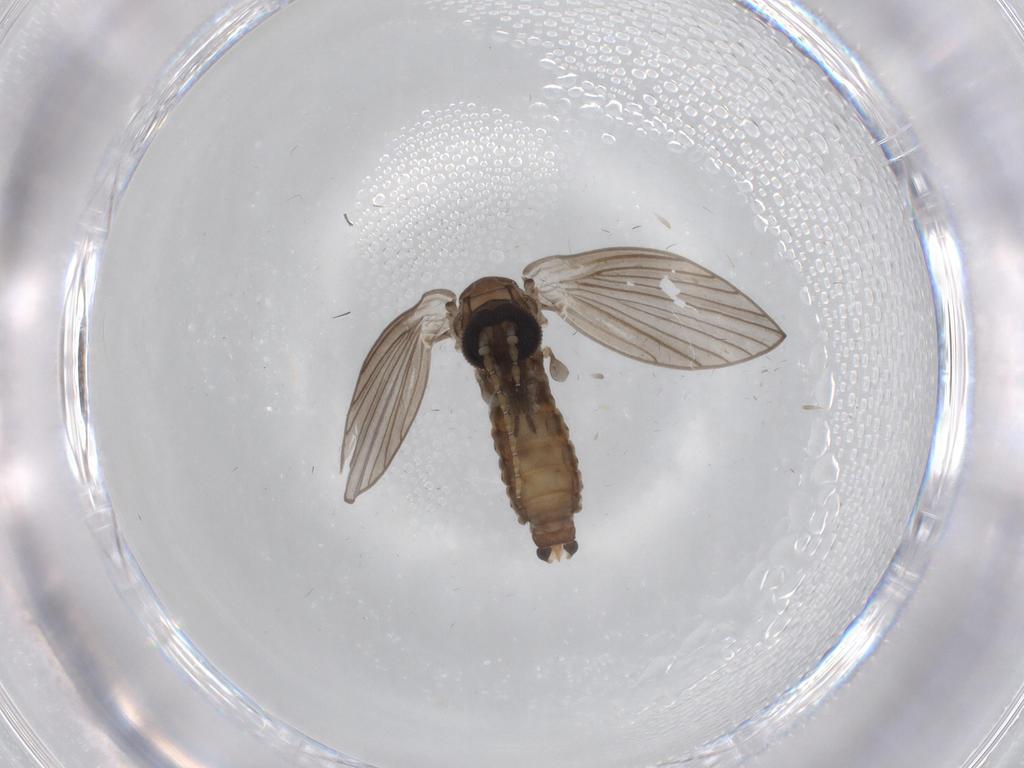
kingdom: Animalia
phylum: Arthropoda
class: Insecta
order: Diptera
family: Cecidomyiidae
